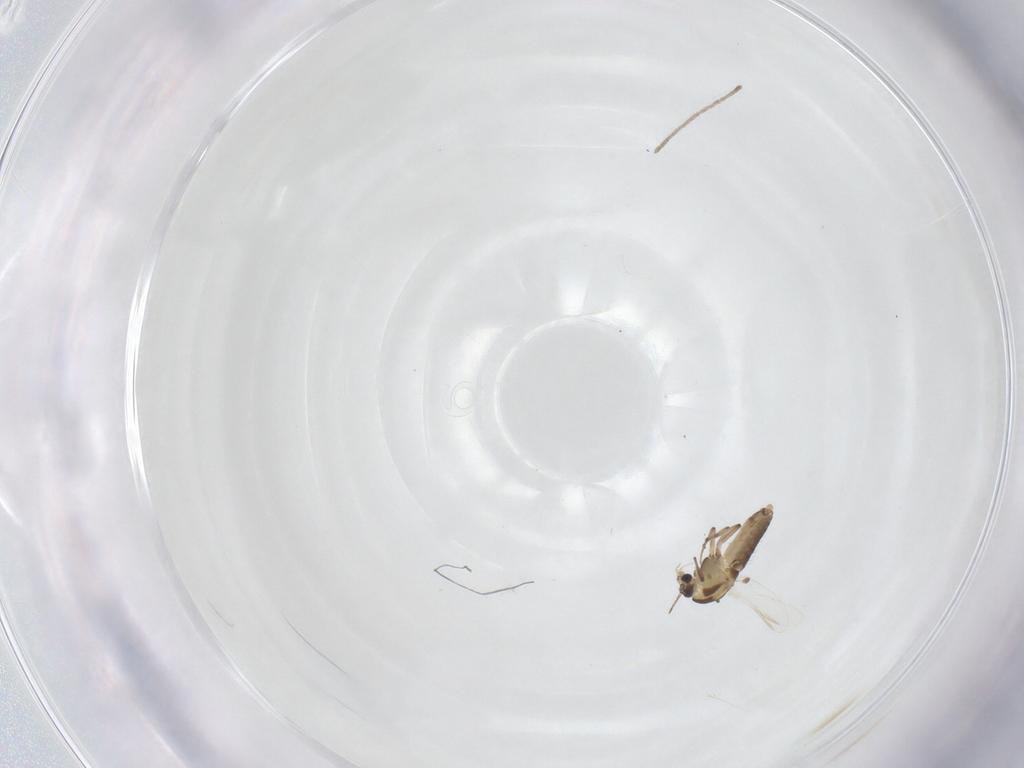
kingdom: Animalia
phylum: Arthropoda
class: Insecta
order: Diptera
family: Chironomidae
